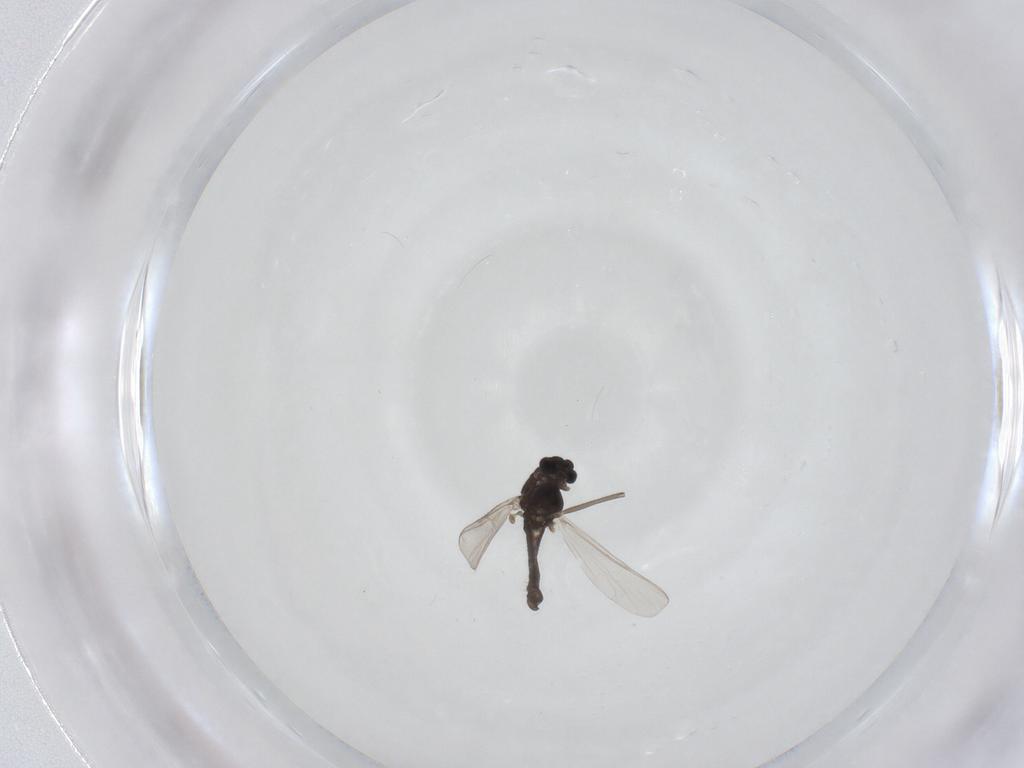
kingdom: Animalia
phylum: Arthropoda
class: Insecta
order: Diptera
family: Chironomidae
